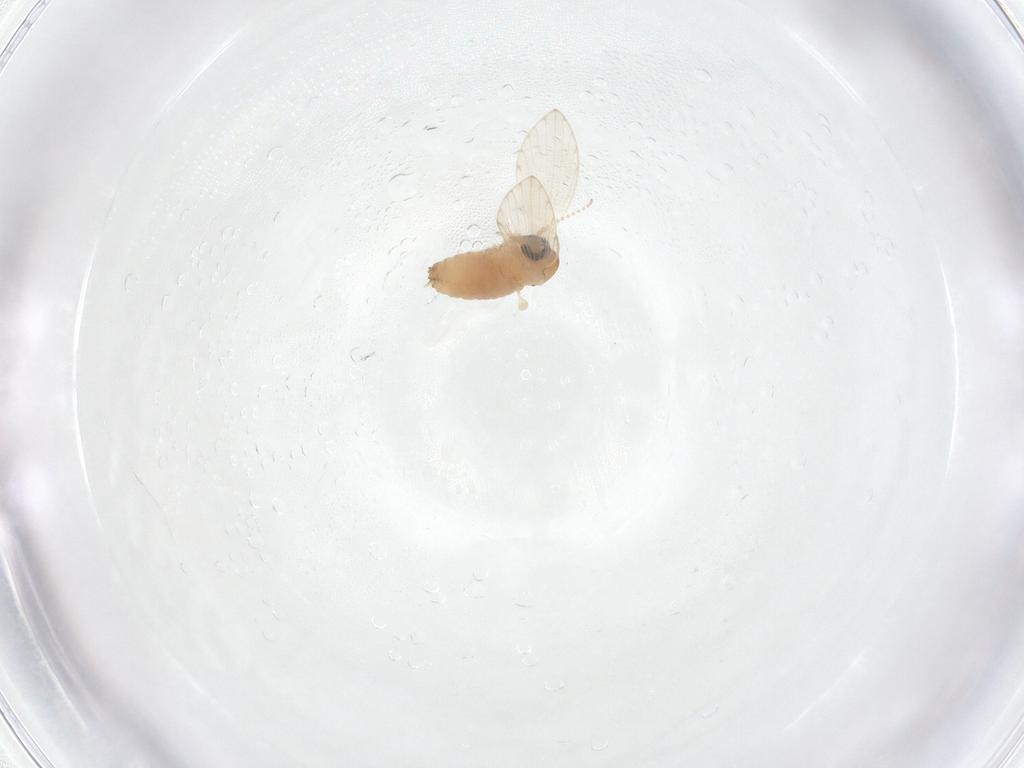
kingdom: Animalia
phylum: Arthropoda
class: Insecta
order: Diptera
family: Psychodidae
